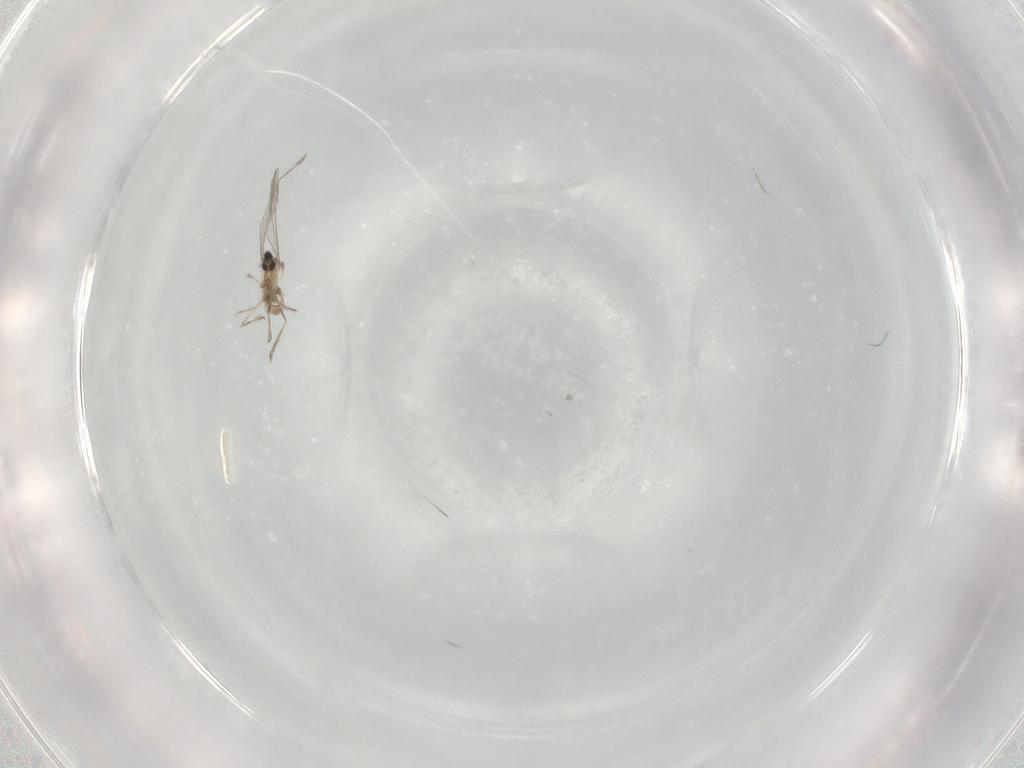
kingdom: Animalia
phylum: Arthropoda
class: Insecta
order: Diptera
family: Limoniidae
